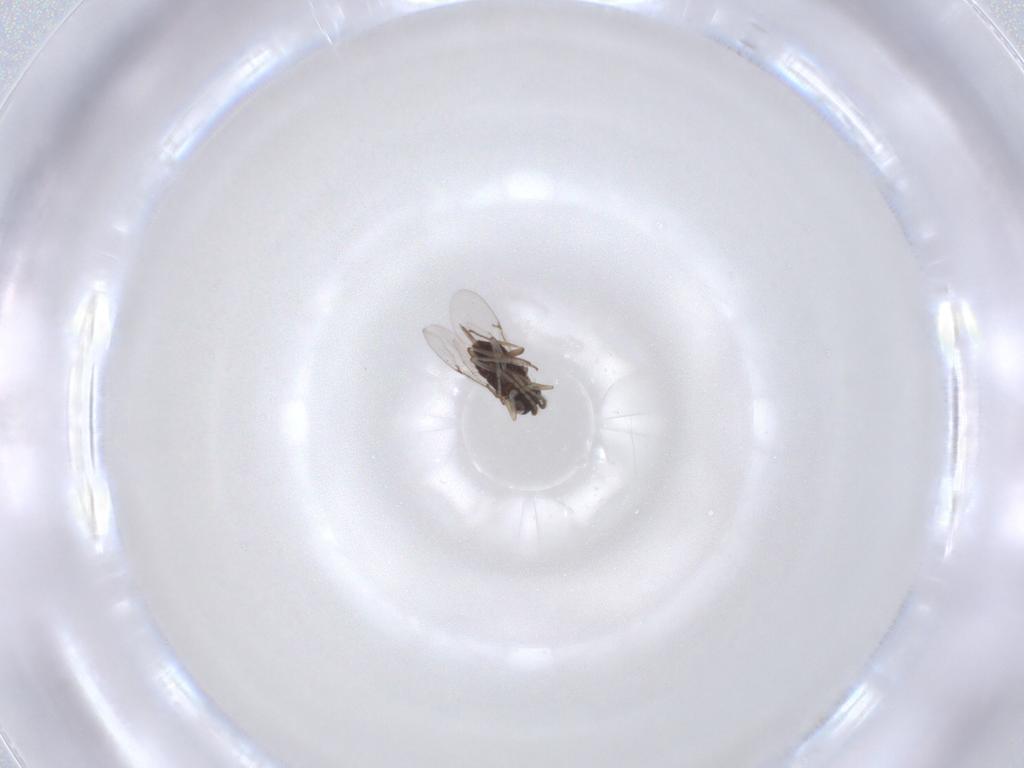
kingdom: Animalia
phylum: Arthropoda
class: Insecta
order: Hymenoptera
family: Encyrtidae
